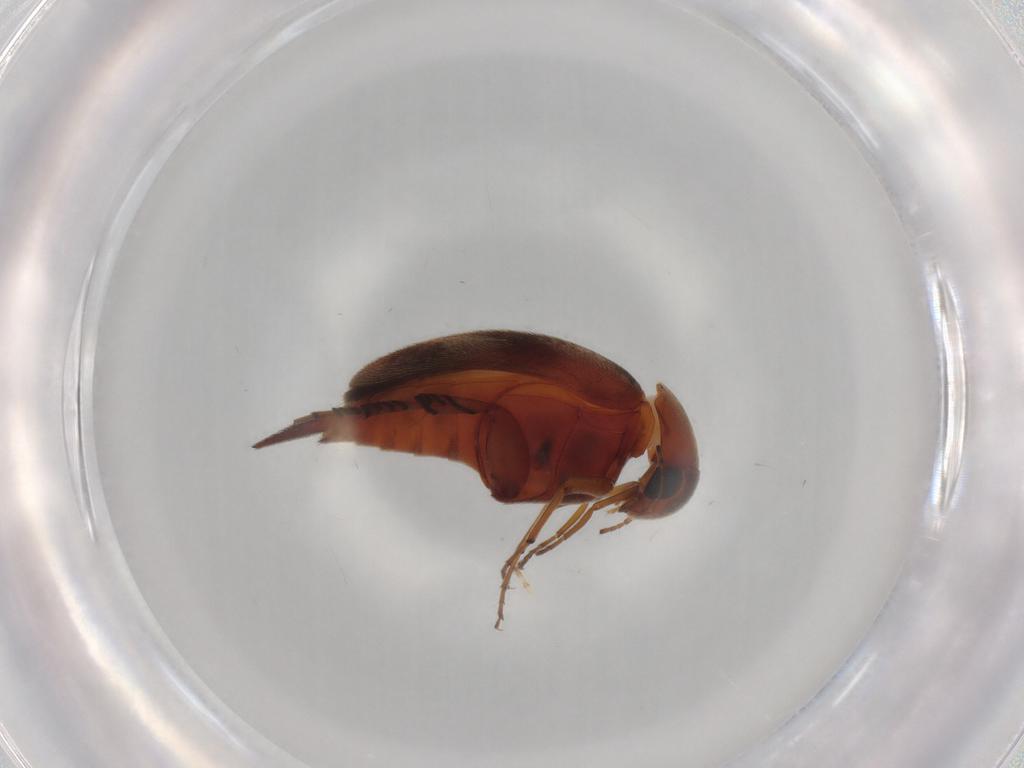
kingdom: Animalia
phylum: Arthropoda
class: Insecta
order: Coleoptera
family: Mordellidae
